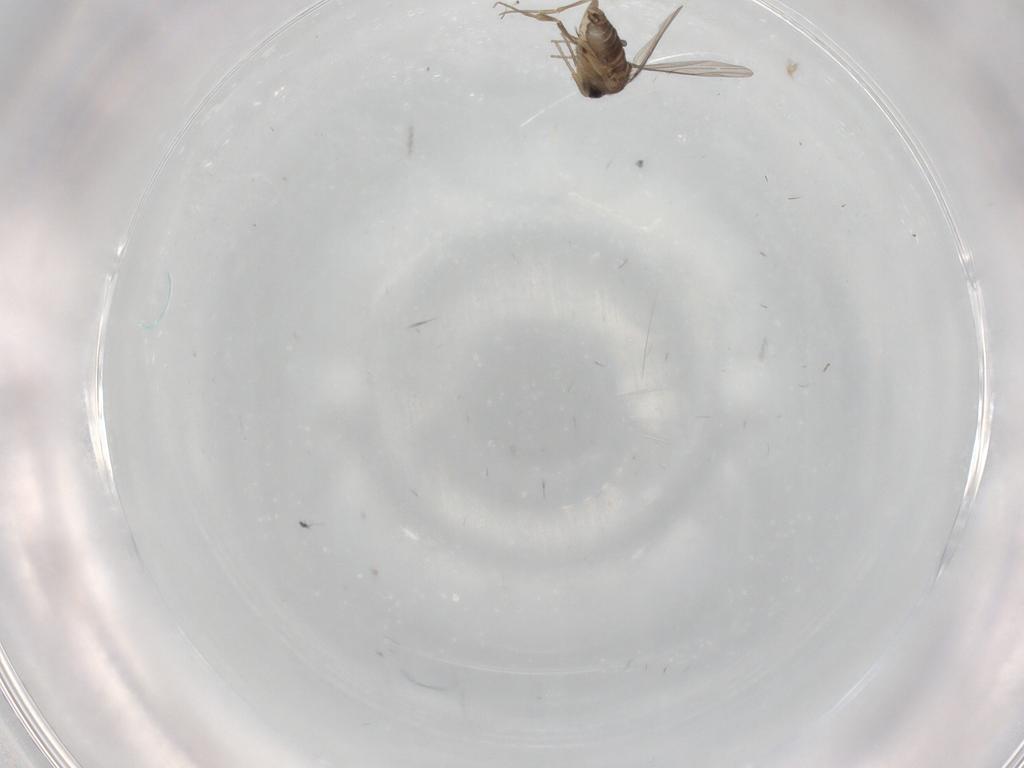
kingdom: Animalia
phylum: Arthropoda
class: Insecta
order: Diptera
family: Phoridae
